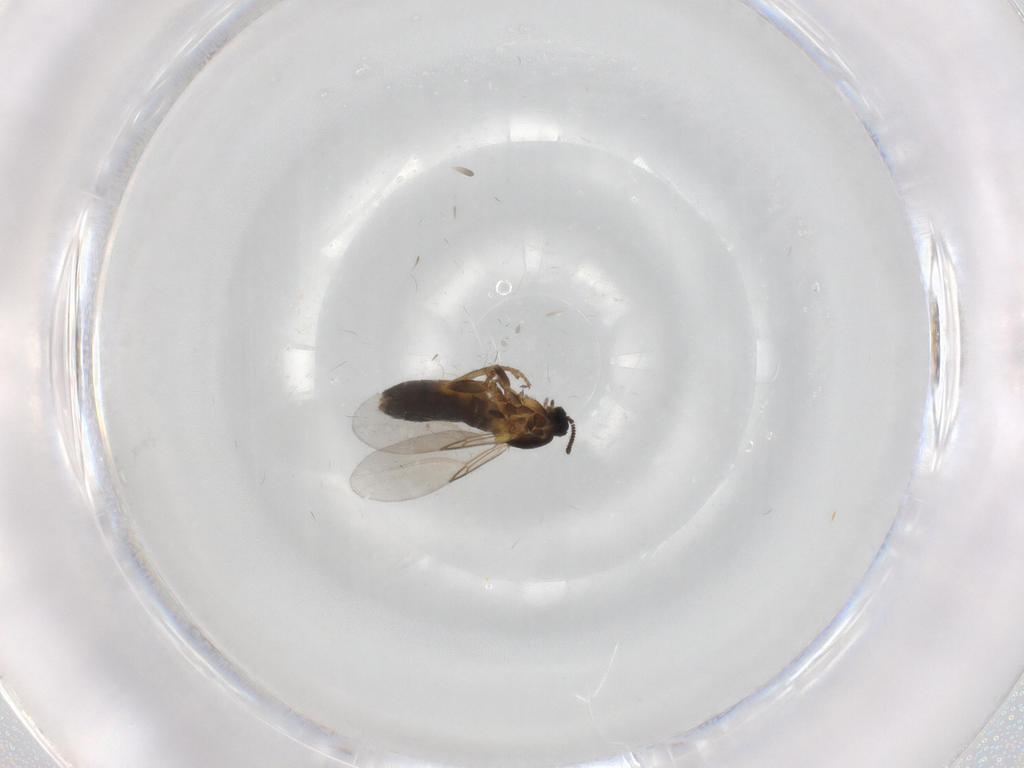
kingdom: Animalia
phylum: Arthropoda
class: Insecta
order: Diptera
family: Scatopsidae
